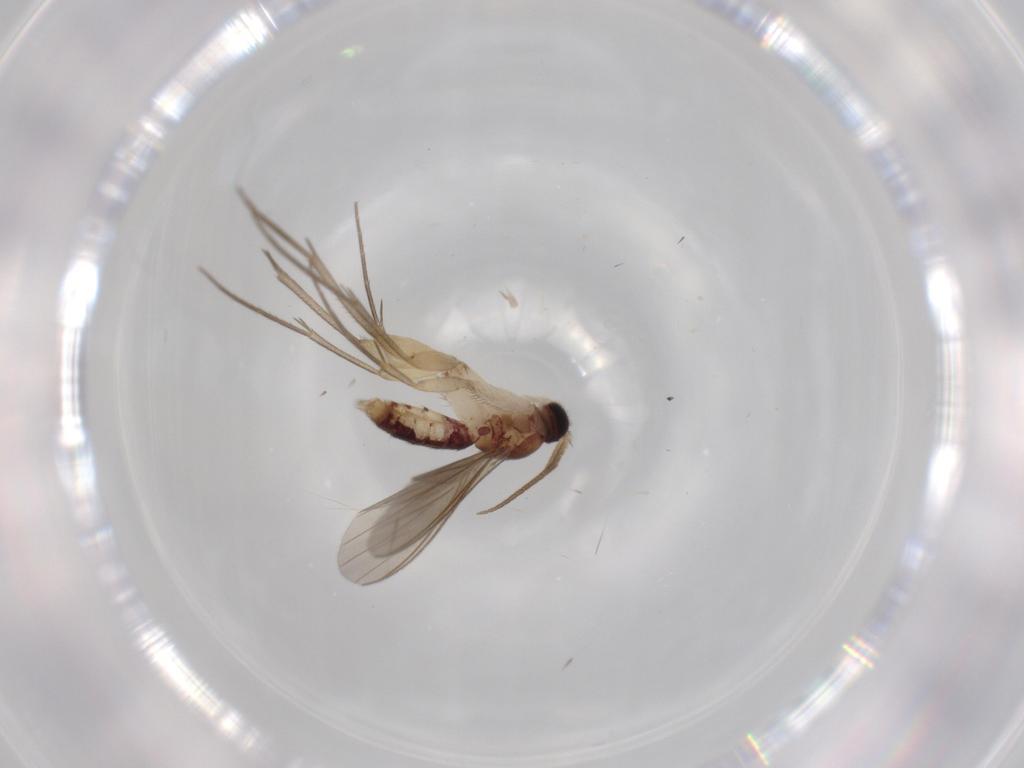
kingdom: Animalia
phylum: Arthropoda
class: Insecta
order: Diptera
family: Mycetophilidae
